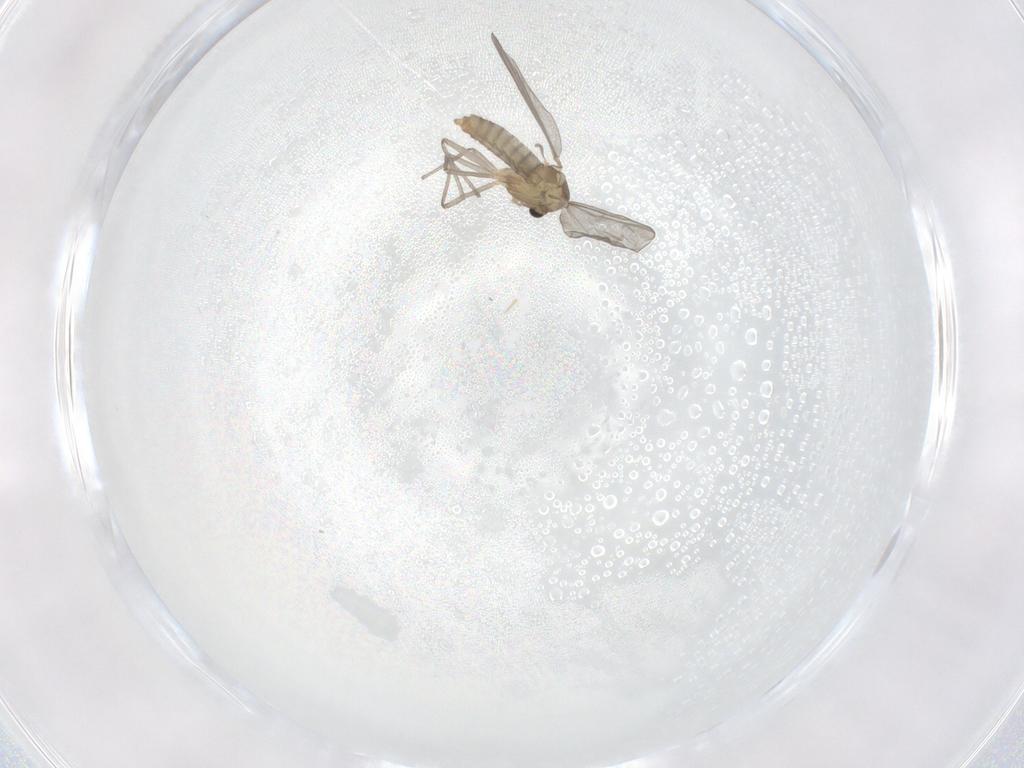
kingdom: Animalia
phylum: Arthropoda
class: Insecta
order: Diptera
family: Chironomidae
